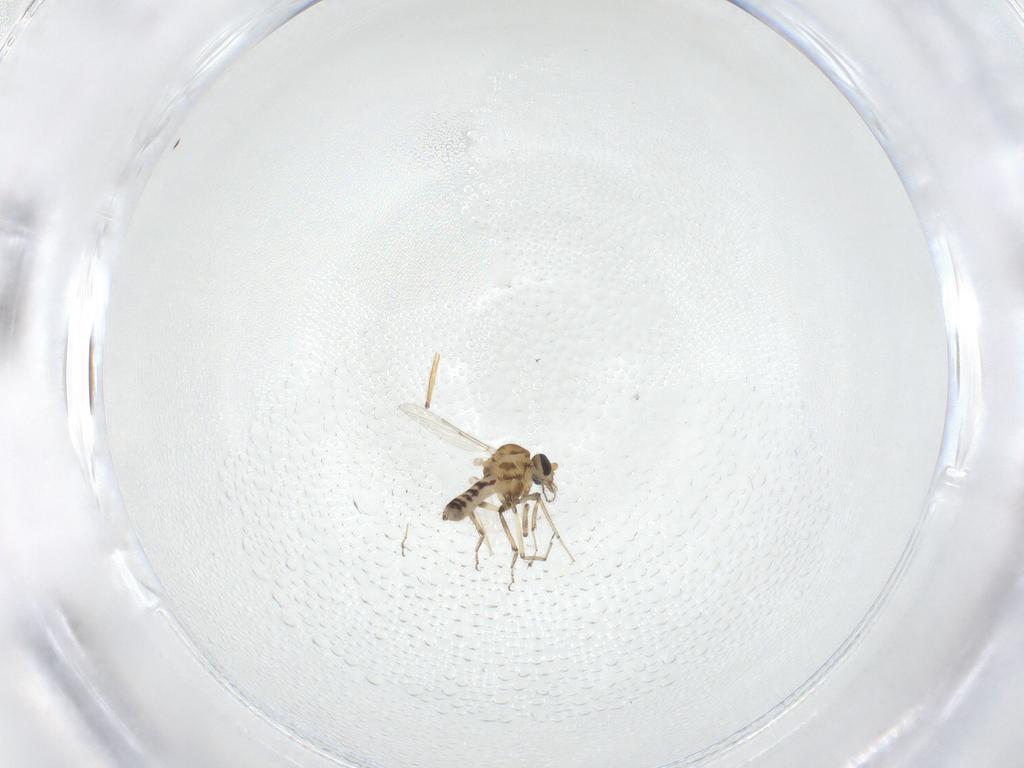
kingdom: Animalia
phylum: Arthropoda
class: Insecta
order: Diptera
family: Ceratopogonidae
